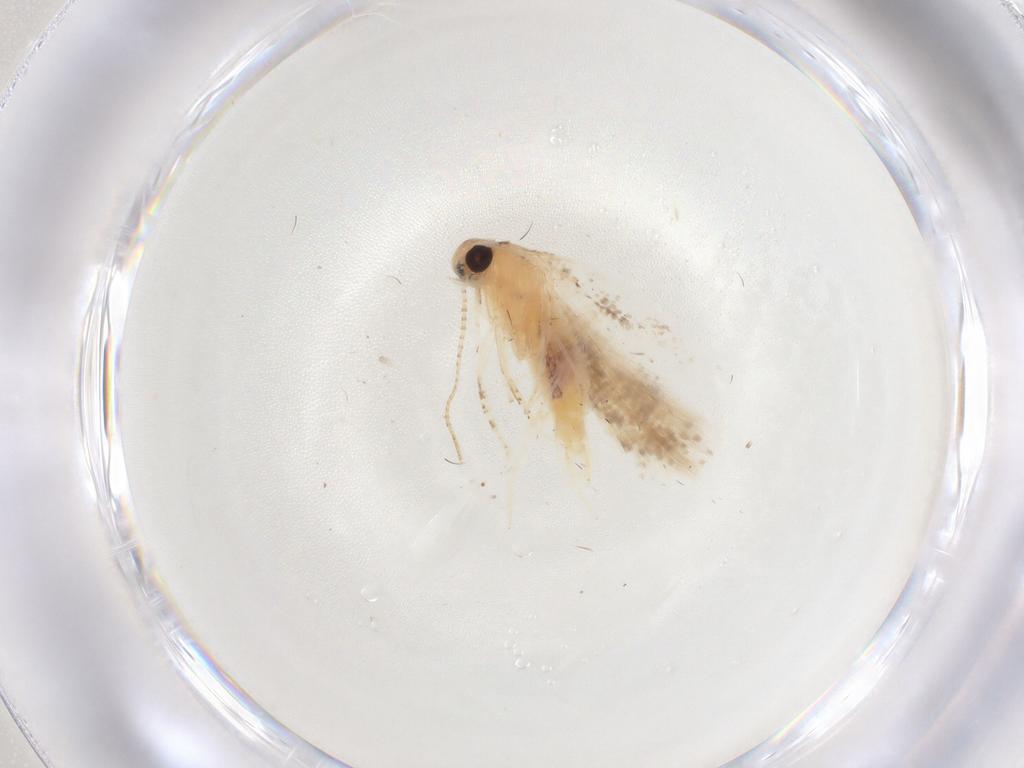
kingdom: Animalia
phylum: Arthropoda
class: Insecta
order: Lepidoptera
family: Gelechiidae
